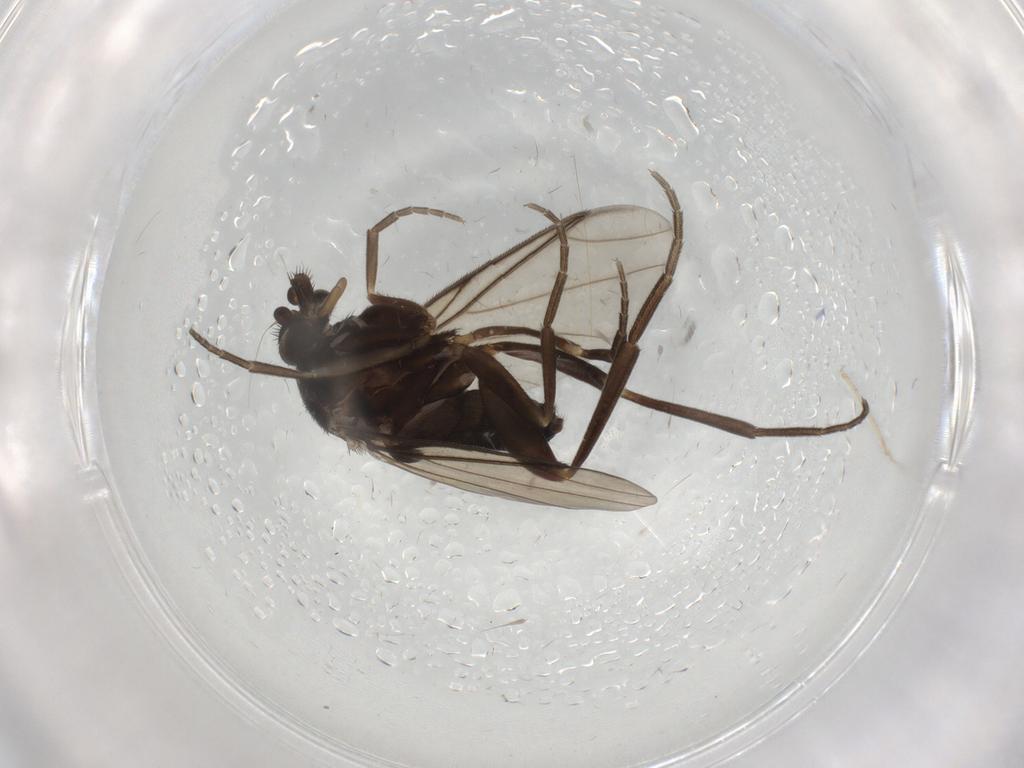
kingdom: Animalia
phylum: Arthropoda
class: Insecta
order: Diptera
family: Phoridae
